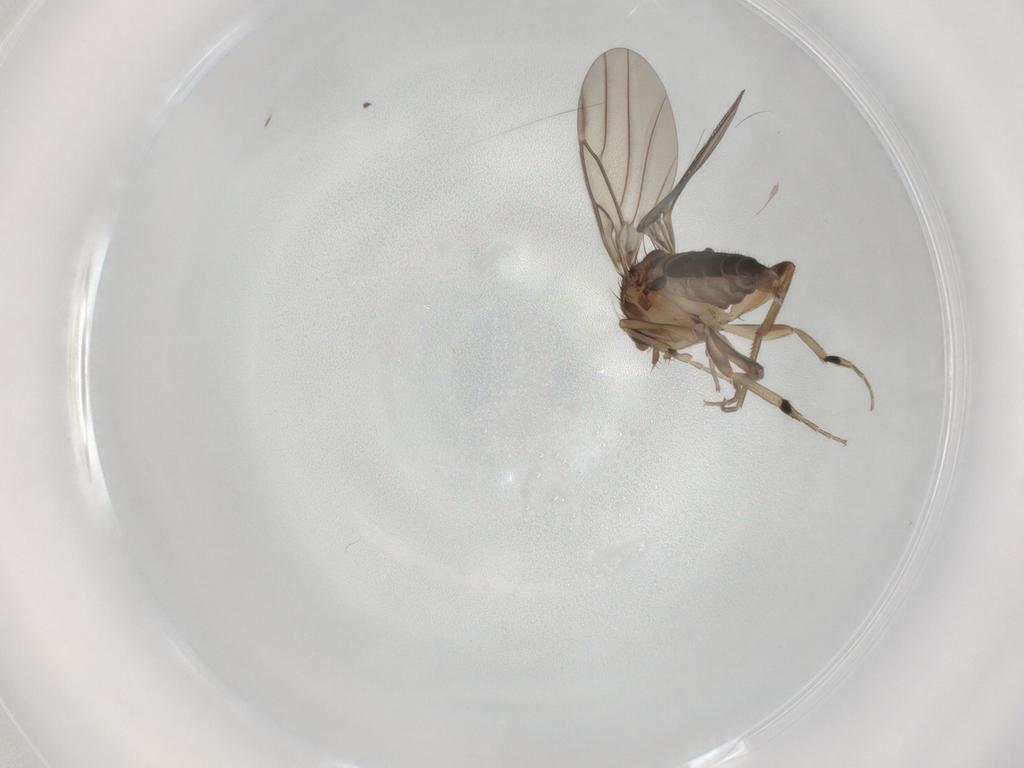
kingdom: Animalia
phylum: Arthropoda
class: Insecta
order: Diptera
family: Phoridae
